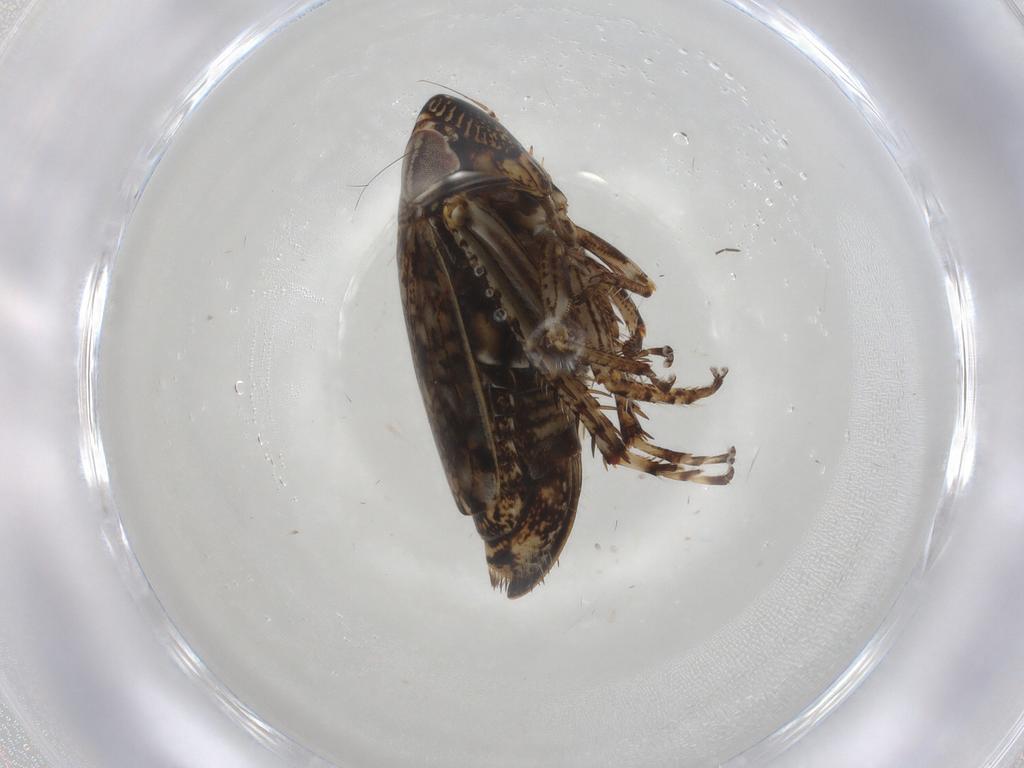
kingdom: Animalia
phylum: Arthropoda
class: Insecta
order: Hemiptera
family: Cicadellidae
